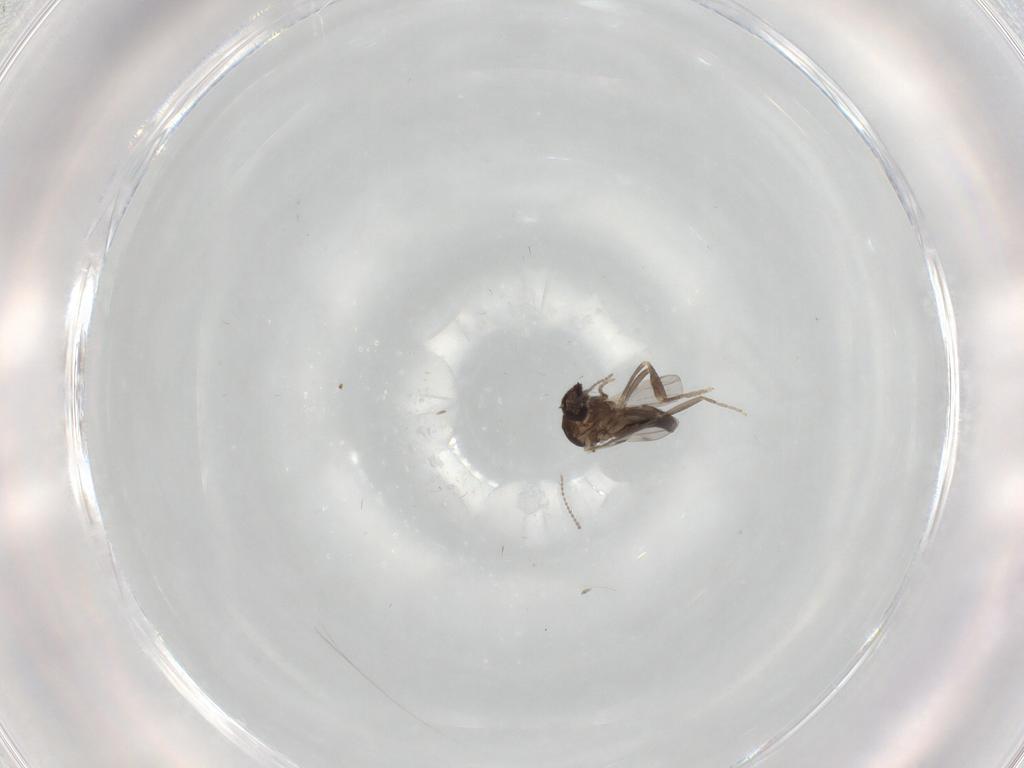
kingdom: Animalia
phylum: Arthropoda
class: Insecta
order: Diptera
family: Ceratopogonidae
